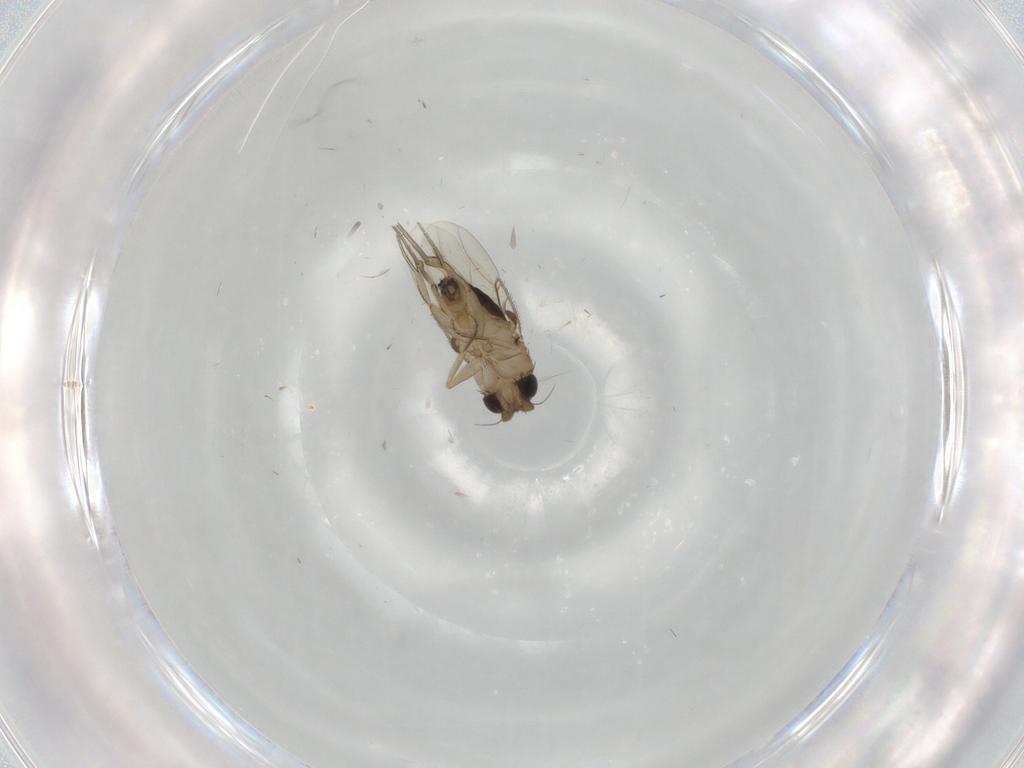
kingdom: Animalia
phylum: Arthropoda
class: Insecta
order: Diptera
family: Phoridae
